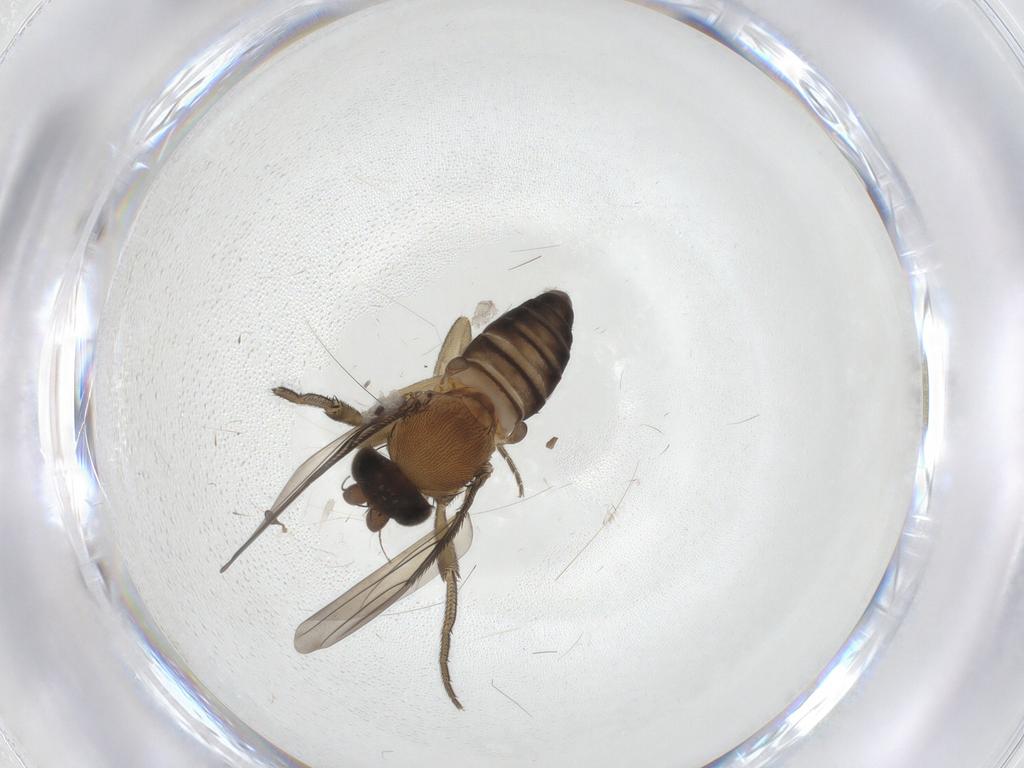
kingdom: Animalia
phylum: Arthropoda
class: Insecta
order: Diptera
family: Phoridae
